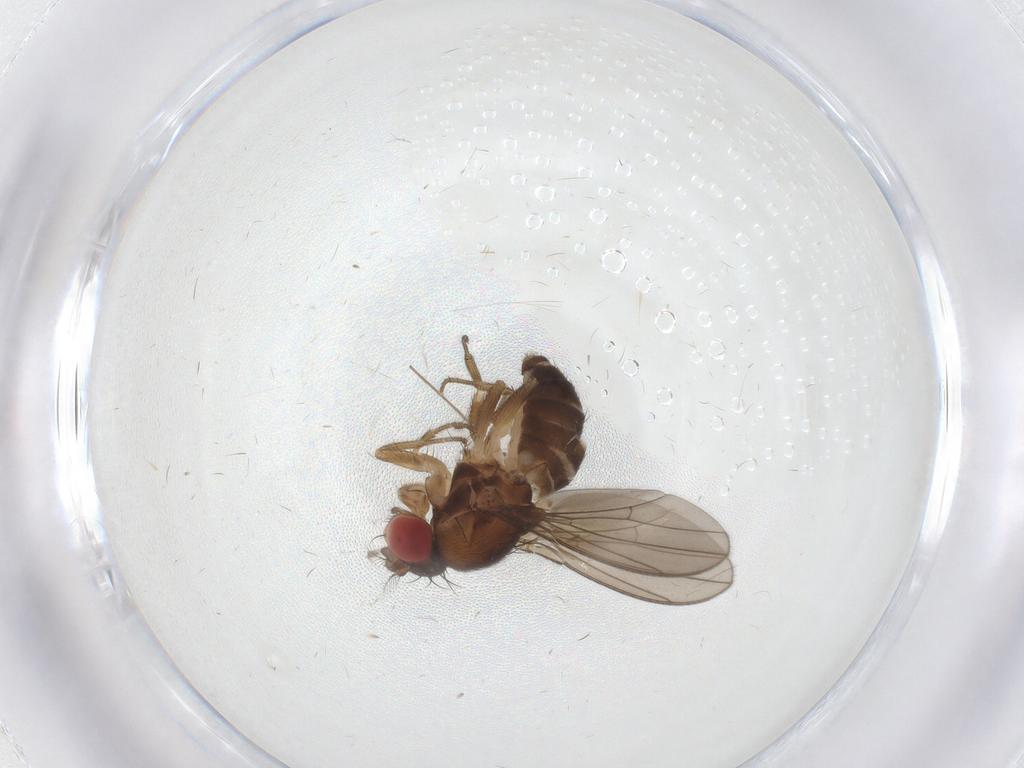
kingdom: Animalia
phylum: Arthropoda
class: Insecta
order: Diptera
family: Drosophilidae
